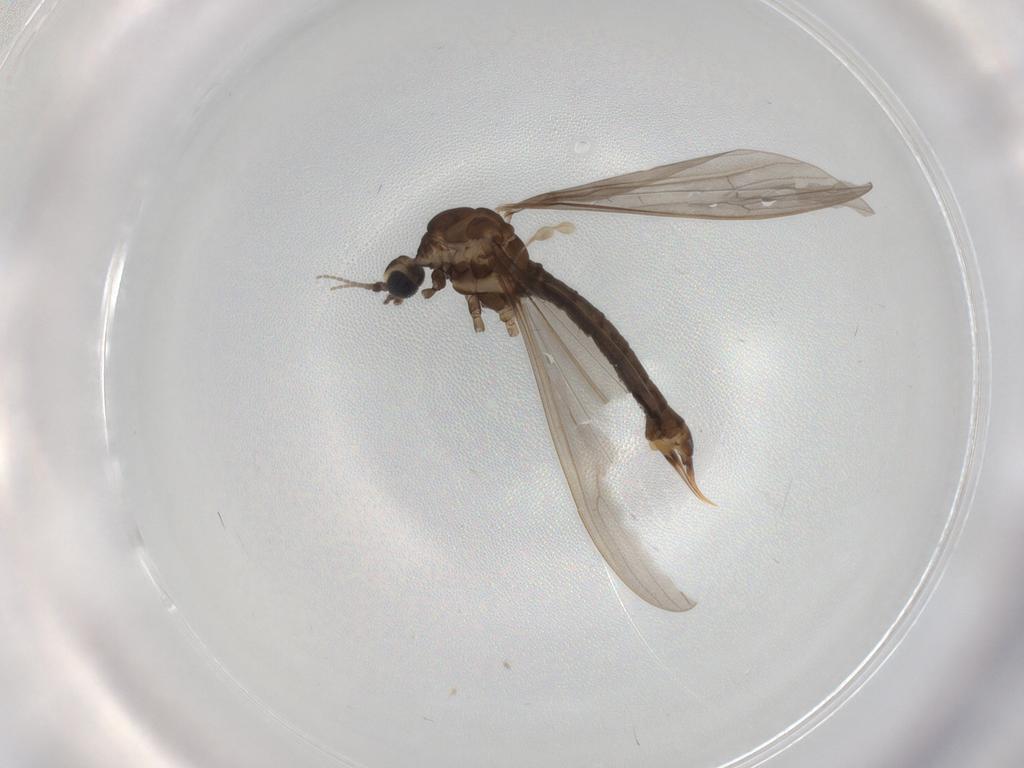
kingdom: Animalia
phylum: Arthropoda
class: Insecta
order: Diptera
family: Limoniidae
